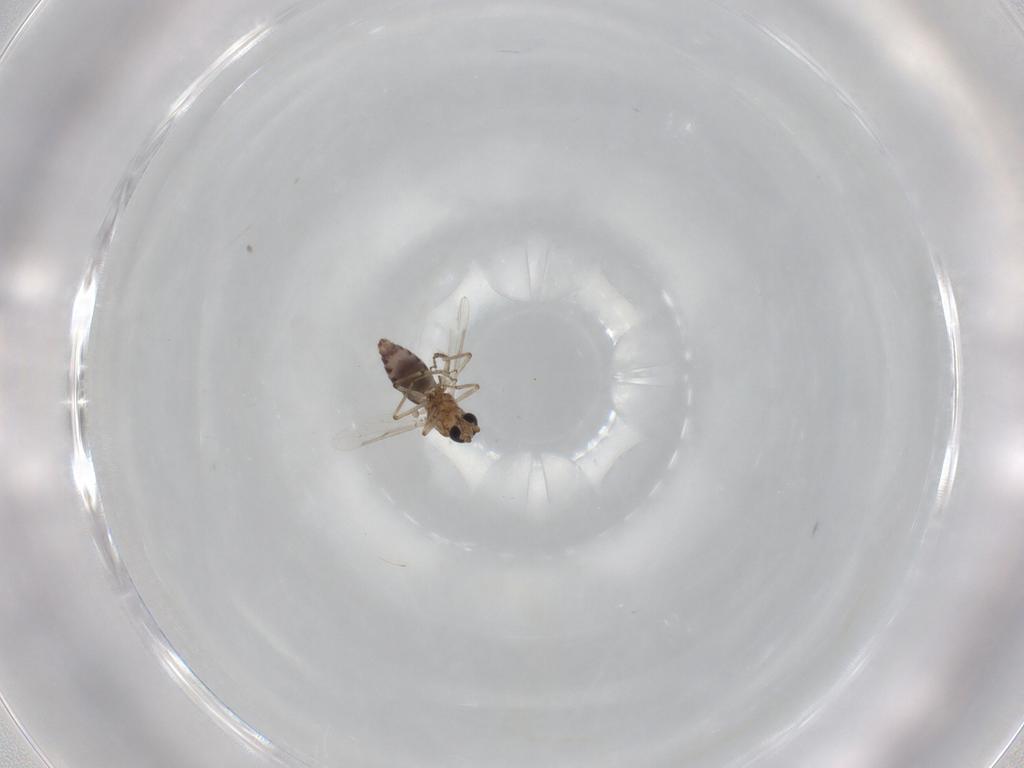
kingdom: Animalia
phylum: Arthropoda
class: Insecta
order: Diptera
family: Ceratopogonidae
